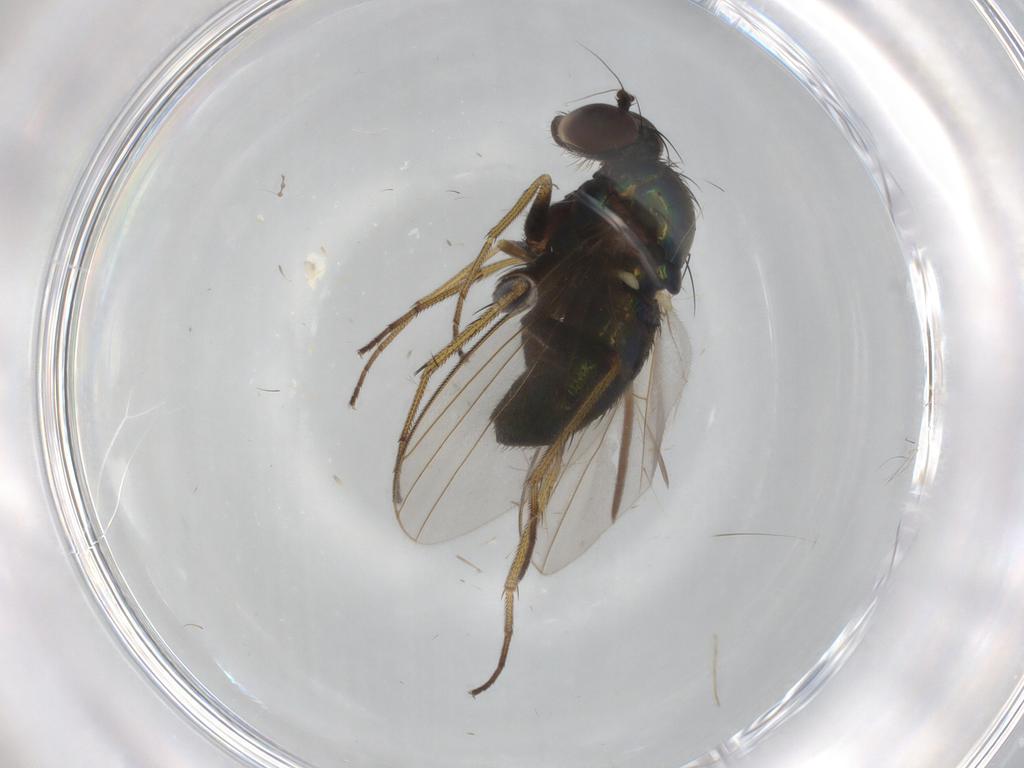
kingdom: Animalia
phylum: Arthropoda
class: Insecta
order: Diptera
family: Dolichopodidae
